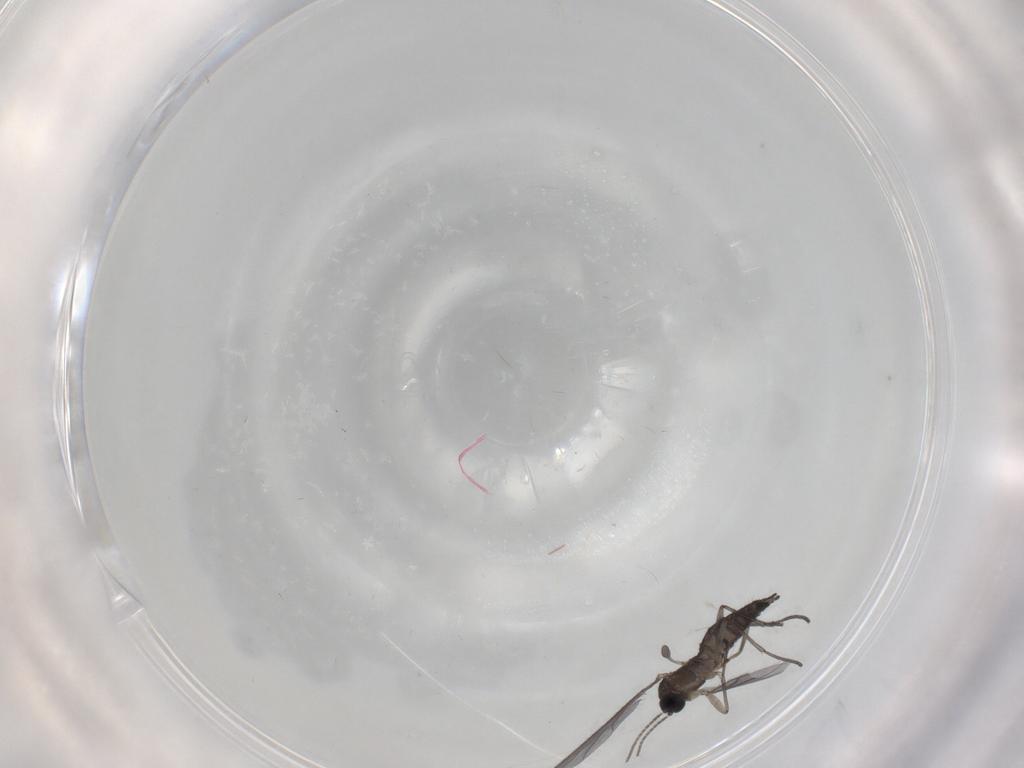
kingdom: Animalia
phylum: Arthropoda
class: Insecta
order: Diptera
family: Sciaridae
